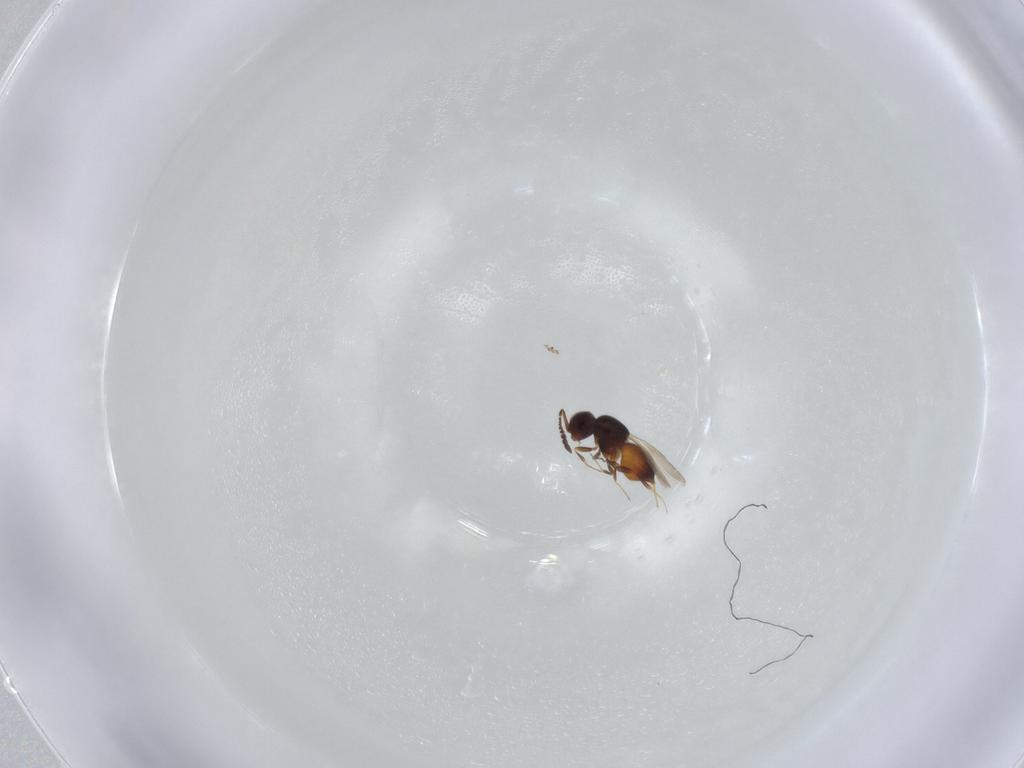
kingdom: Animalia
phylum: Arthropoda
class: Insecta
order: Hymenoptera
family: Ceraphronidae
